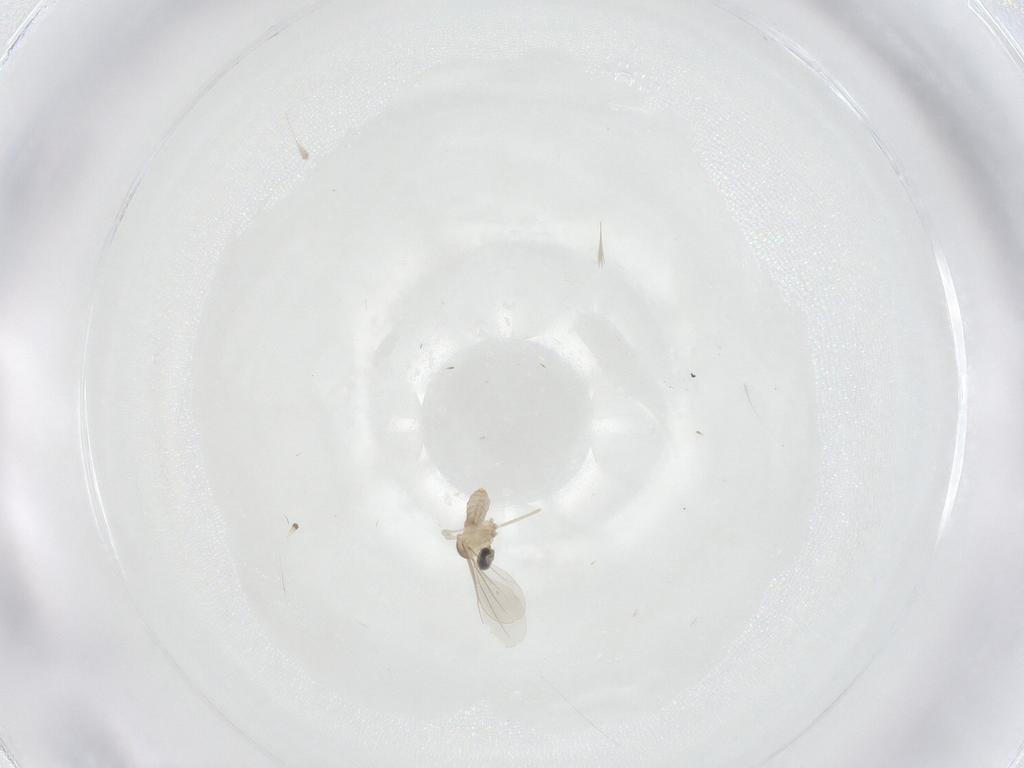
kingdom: Animalia
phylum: Arthropoda
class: Insecta
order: Diptera
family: Cecidomyiidae
